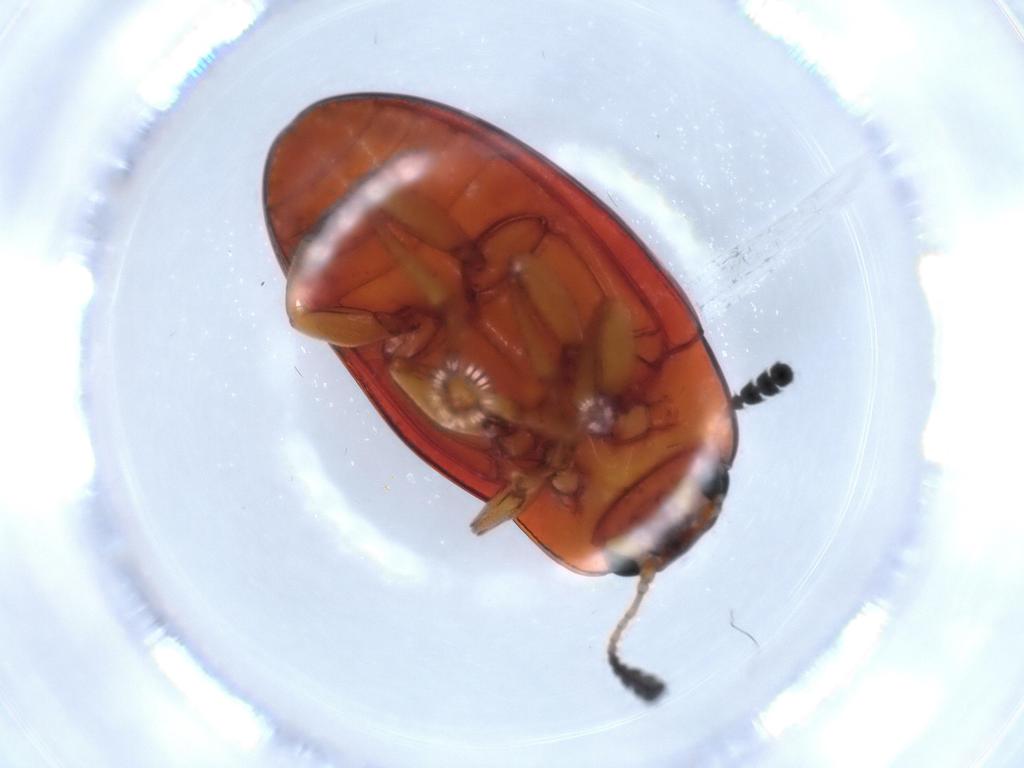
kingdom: Animalia
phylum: Arthropoda
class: Insecta
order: Coleoptera
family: Erotylidae
